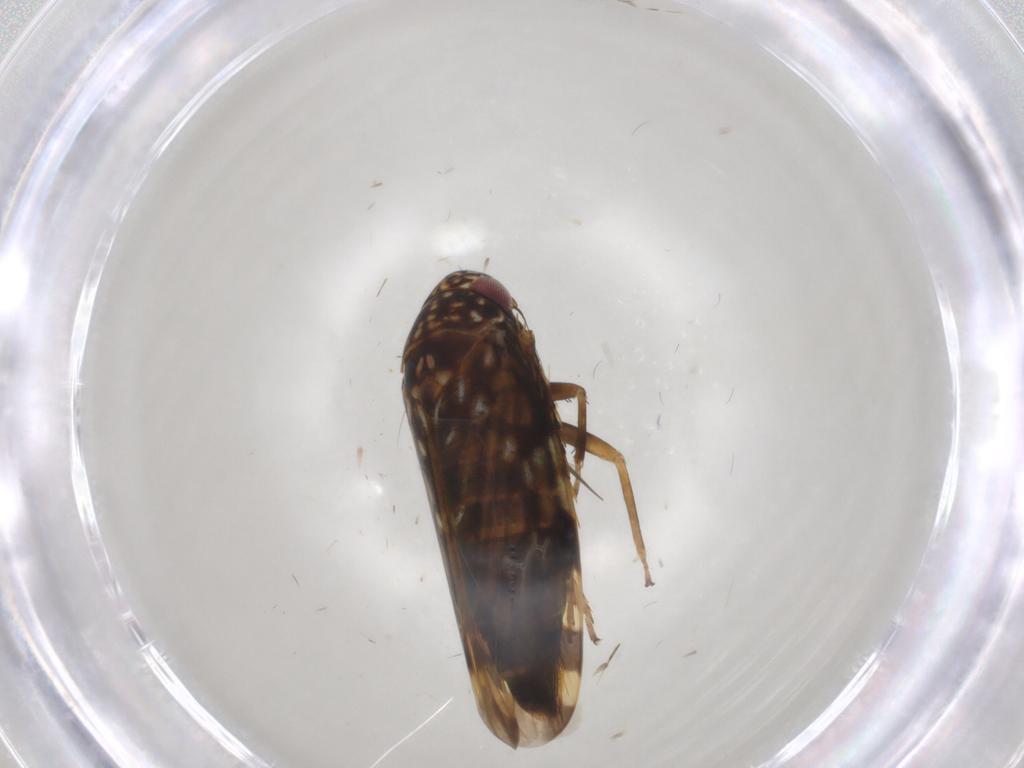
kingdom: Animalia
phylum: Arthropoda
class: Insecta
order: Hemiptera
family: Cicadellidae
